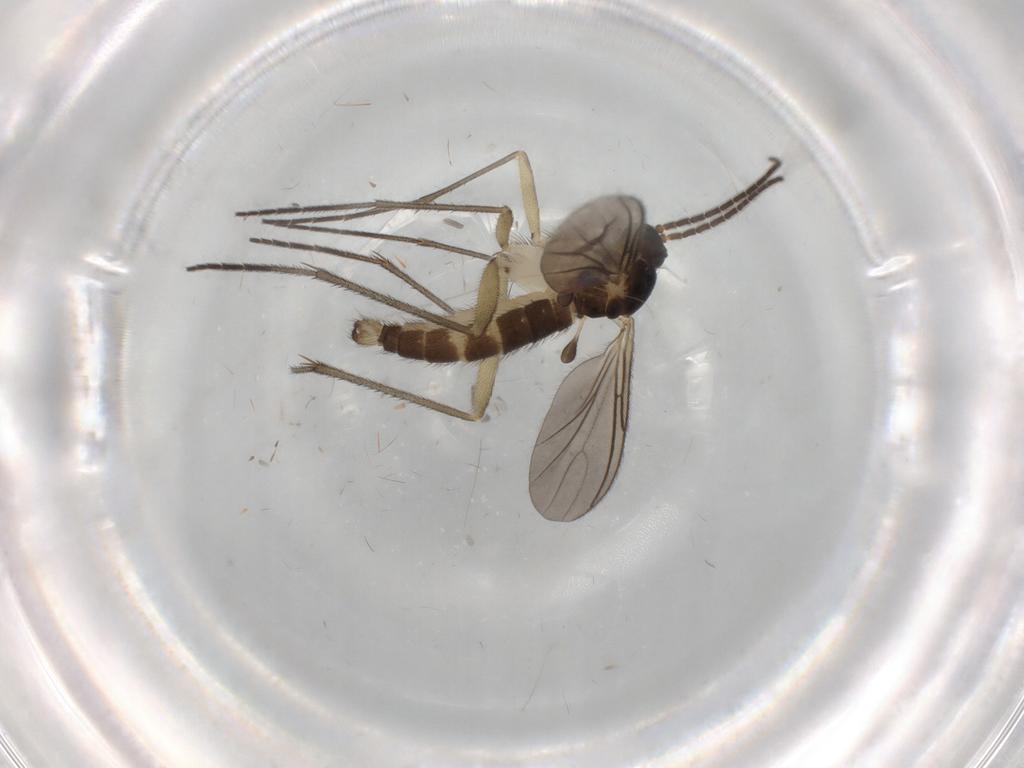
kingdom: Animalia
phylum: Arthropoda
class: Insecta
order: Diptera
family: Sciaridae
